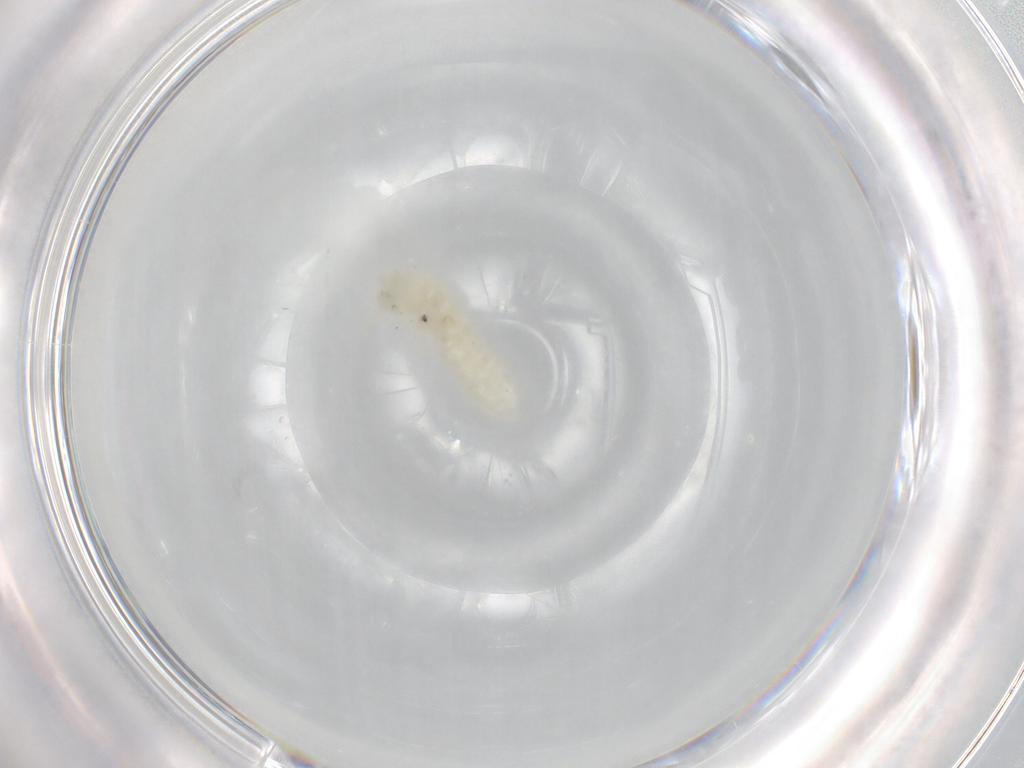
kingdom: Animalia
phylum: Arthropoda
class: Collembola
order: Poduromorpha
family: Onychiuridae
